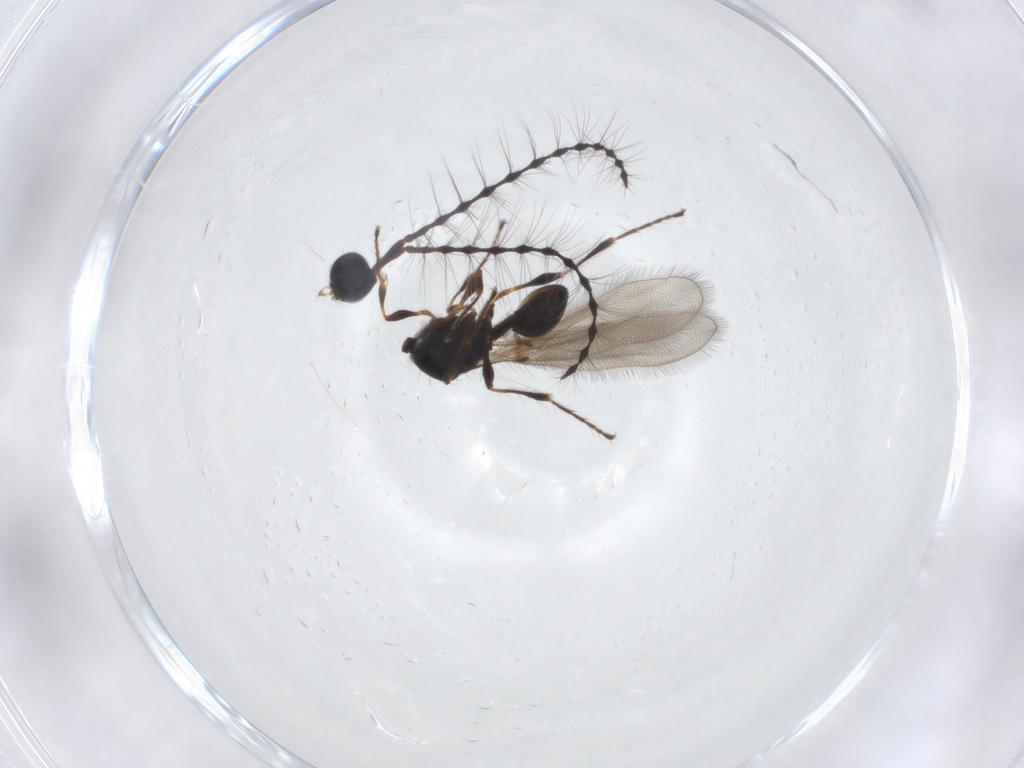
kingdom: Animalia
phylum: Arthropoda
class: Insecta
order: Hymenoptera
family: Diapriidae
